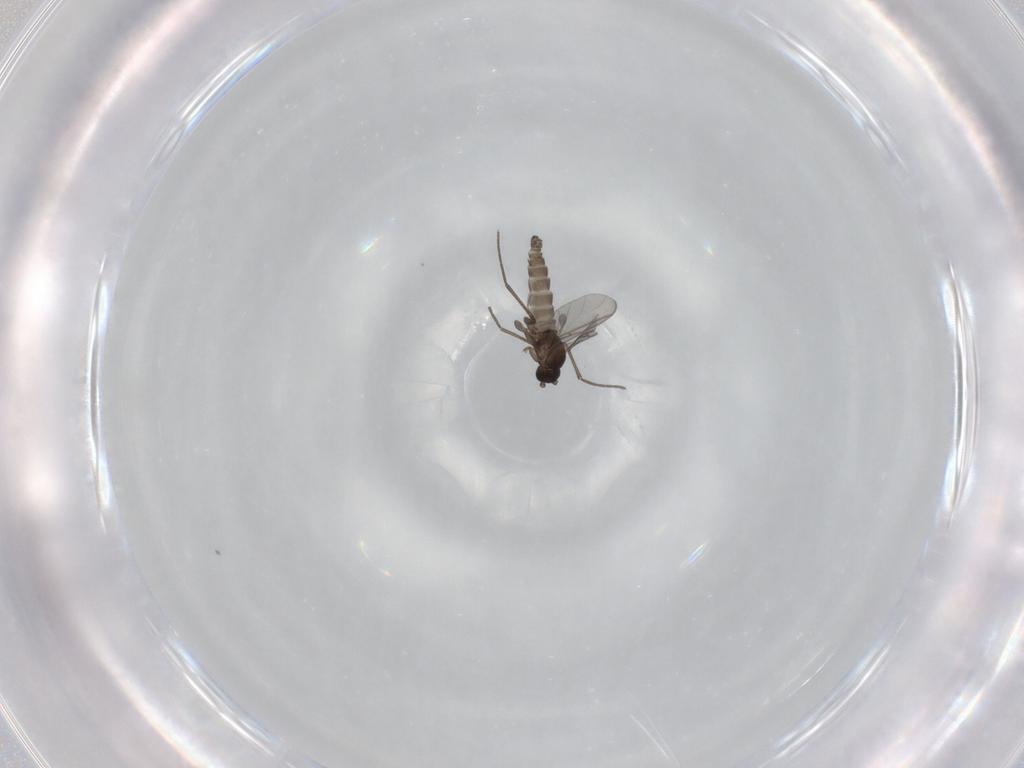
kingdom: Animalia
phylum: Arthropoda
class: Insecta
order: Diptera
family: Sciaridae
